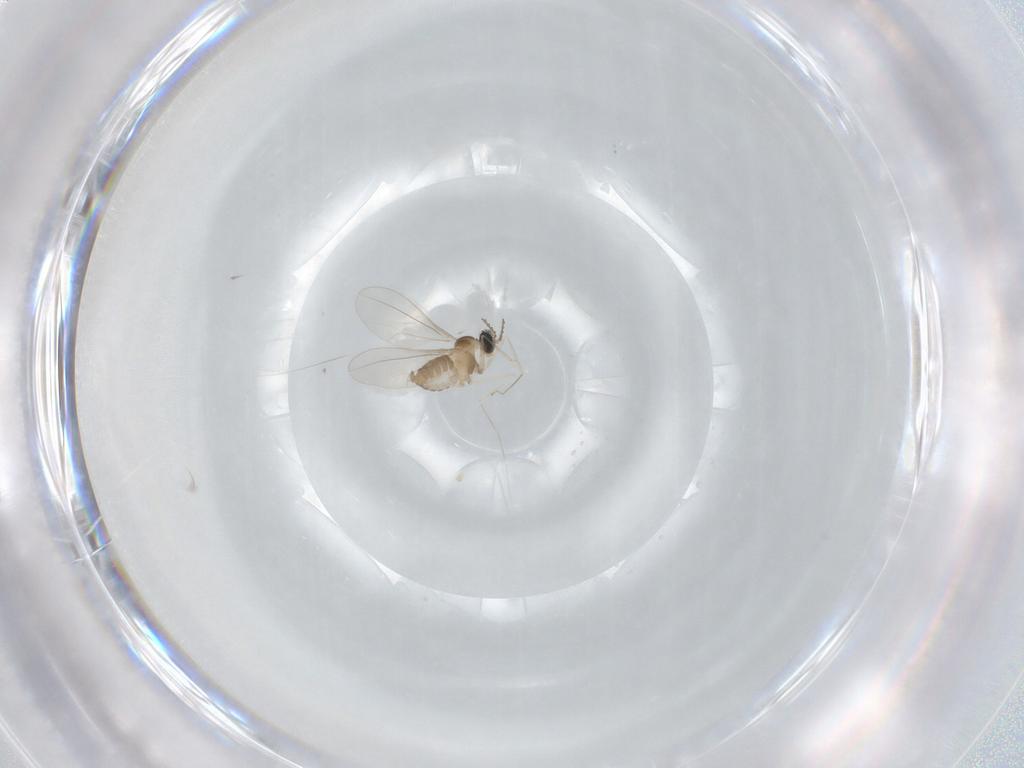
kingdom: Animalia
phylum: Arthropoda
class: Insecta
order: Diptera
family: Cecidomyiidae
